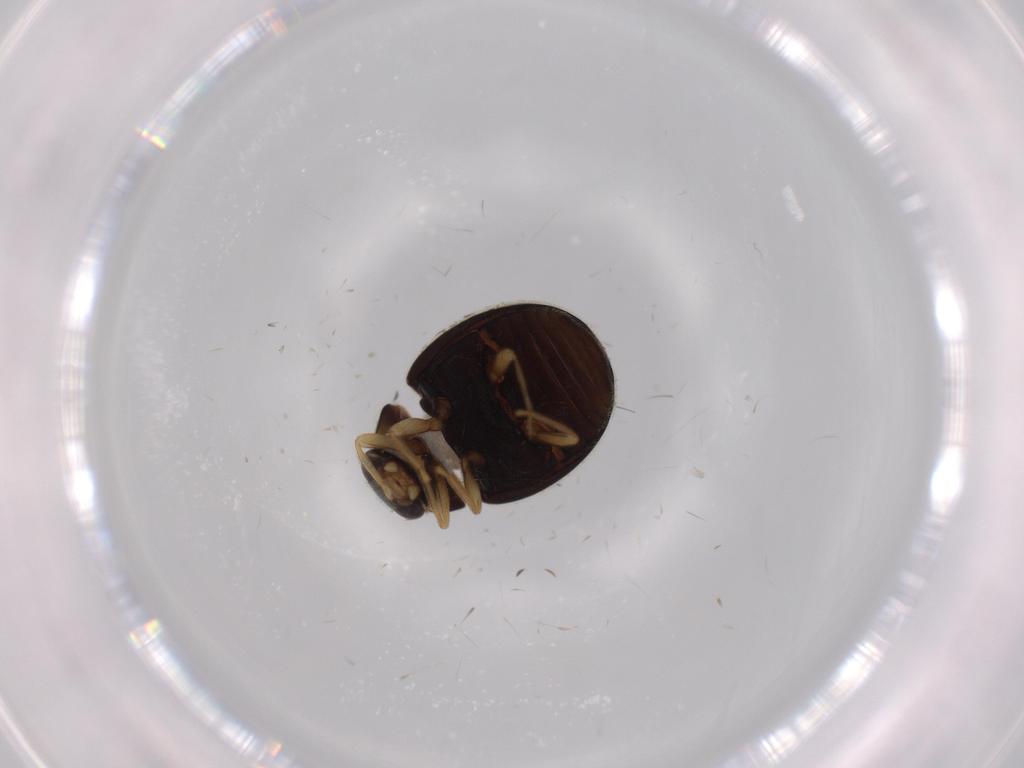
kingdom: Animalia
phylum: Arthropoda
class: Insecta
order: Coleoptera
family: Coccinellidae
